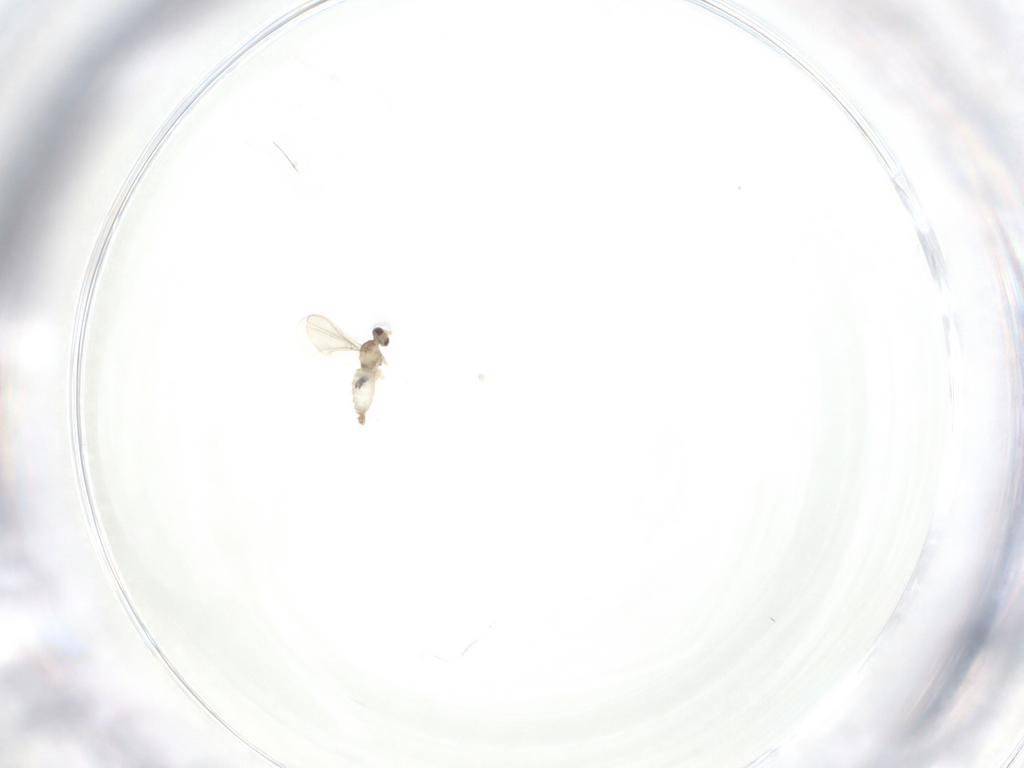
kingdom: Animalia
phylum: Arthropoda
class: Insecta
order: Diptera
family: Cecidomyiidae
